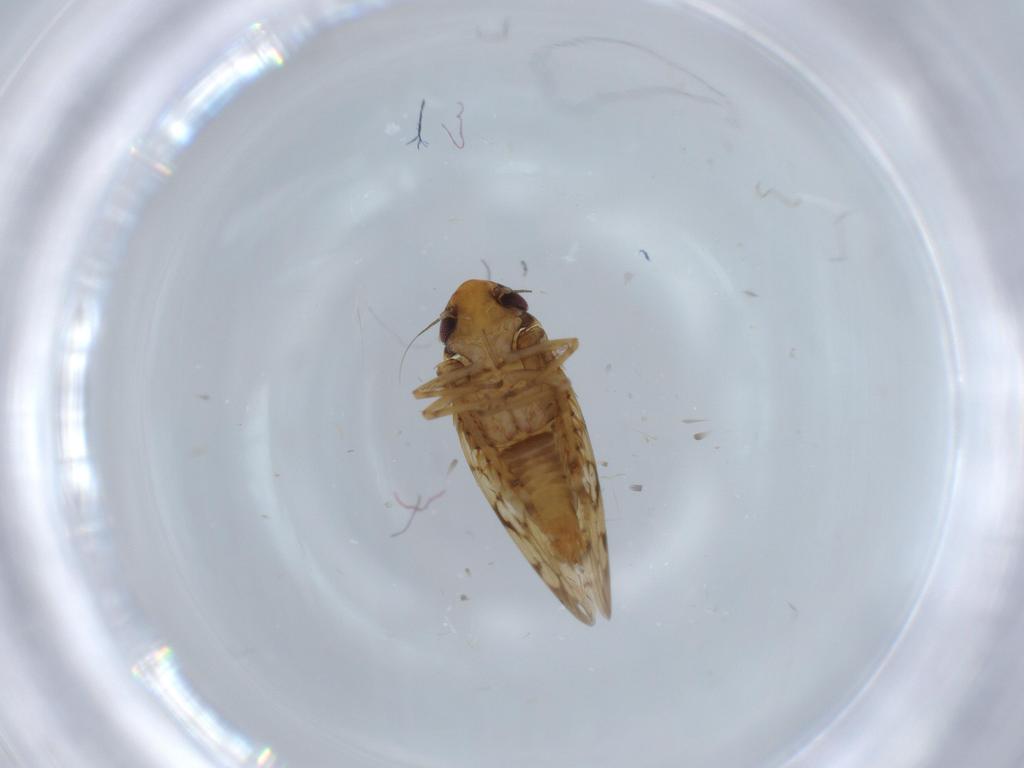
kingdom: Animalia
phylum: Arthropoda
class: Insecta
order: Hemiptera
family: Cicadellidae
